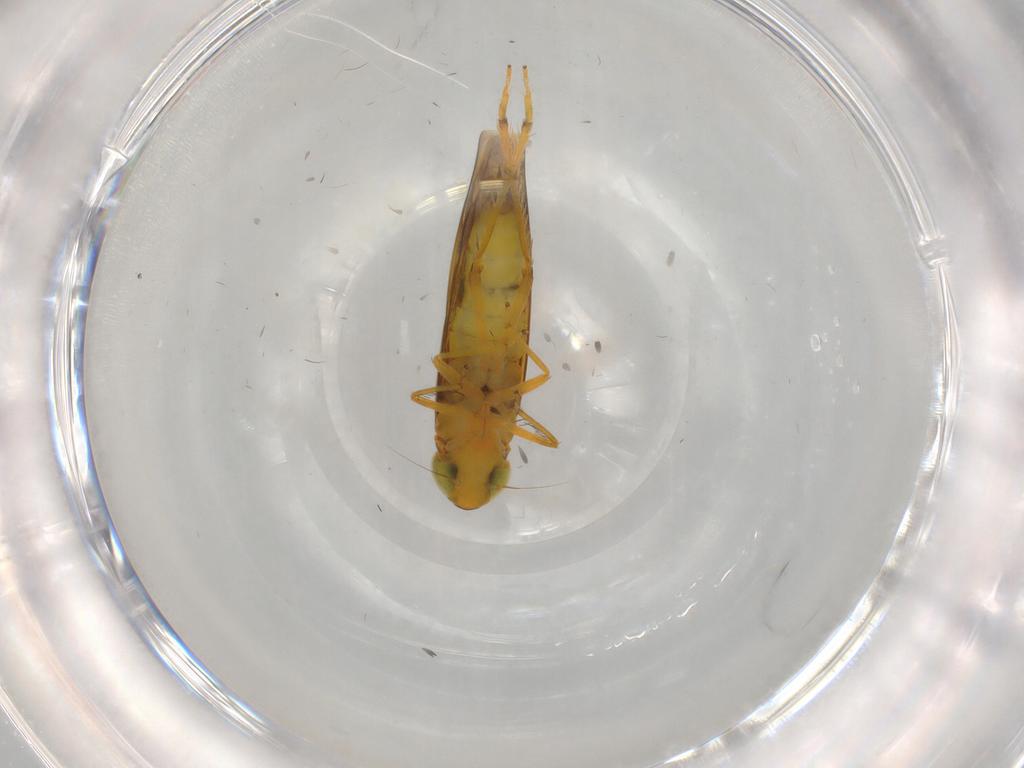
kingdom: Animalia
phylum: Arthropoda
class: Insecta
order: Hemiptera
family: Cicadellidae
